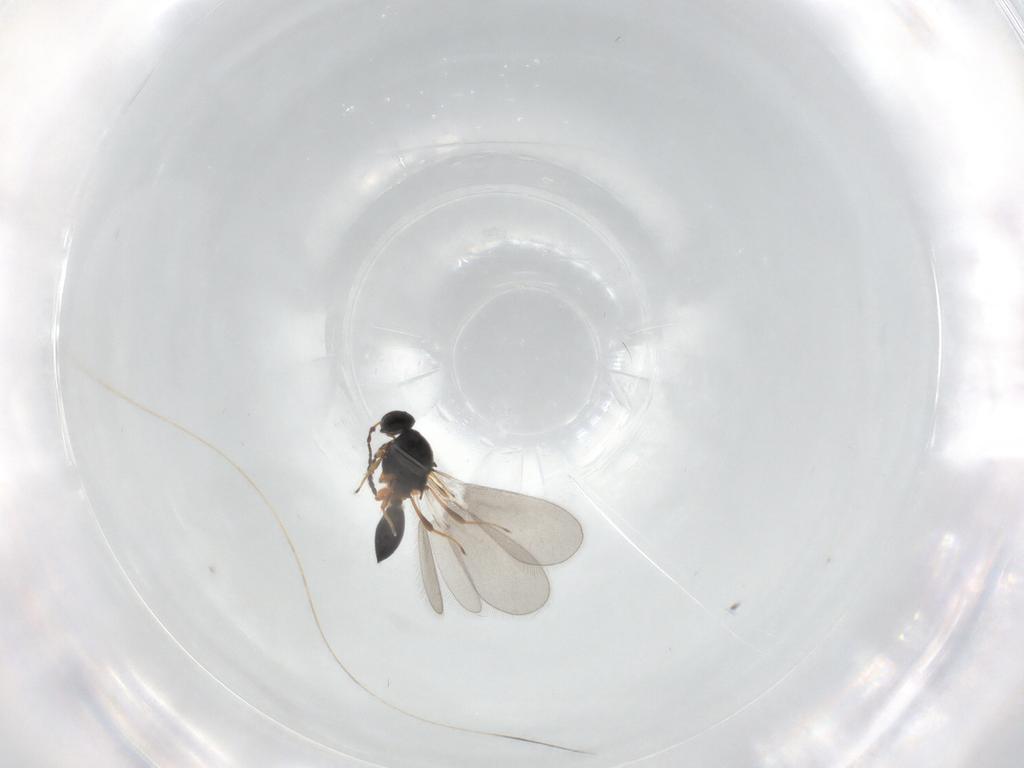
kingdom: Animalia
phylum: Arthropoda
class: Insecta
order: Hymenoptera
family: Platygastridae
